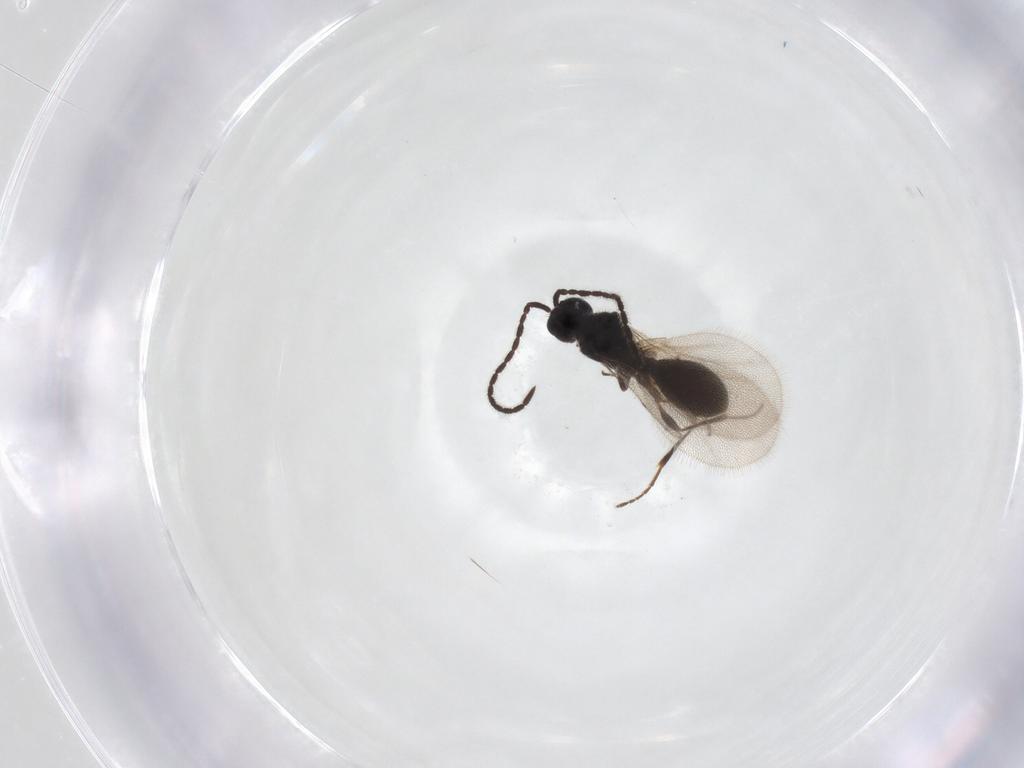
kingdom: Animalia
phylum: Arthropoda
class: Insecta
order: Hymenoptera
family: Diapriidae
